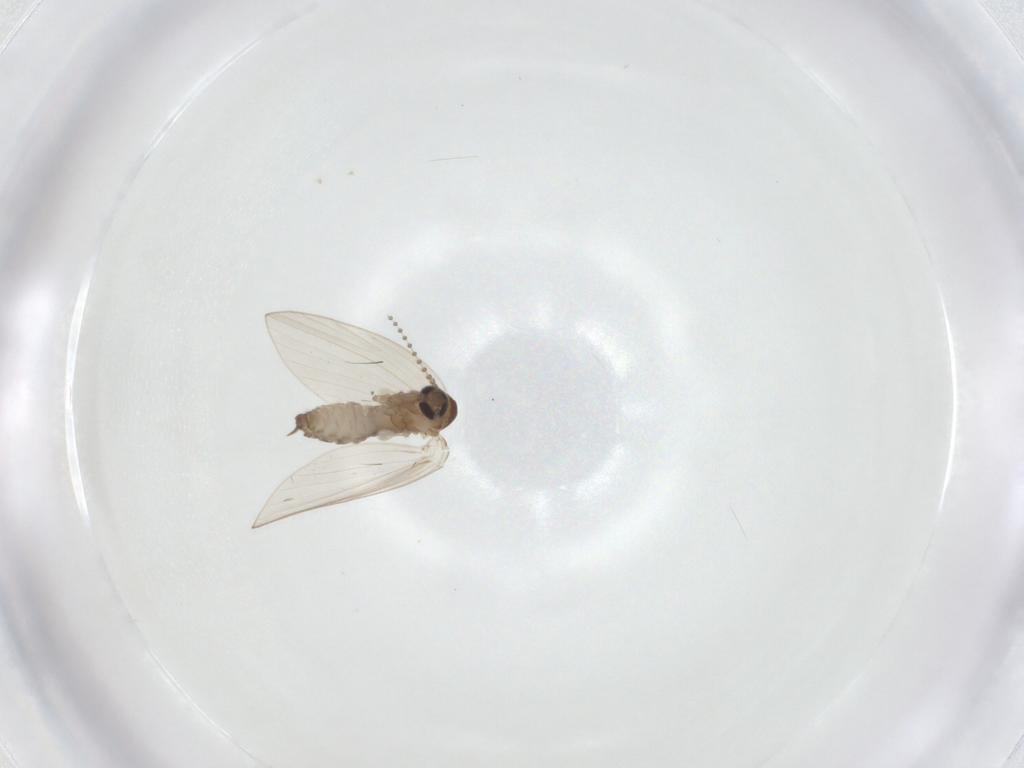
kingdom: Animalia
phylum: Arthropoda
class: Insecta
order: Diptera
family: Psychodidae
